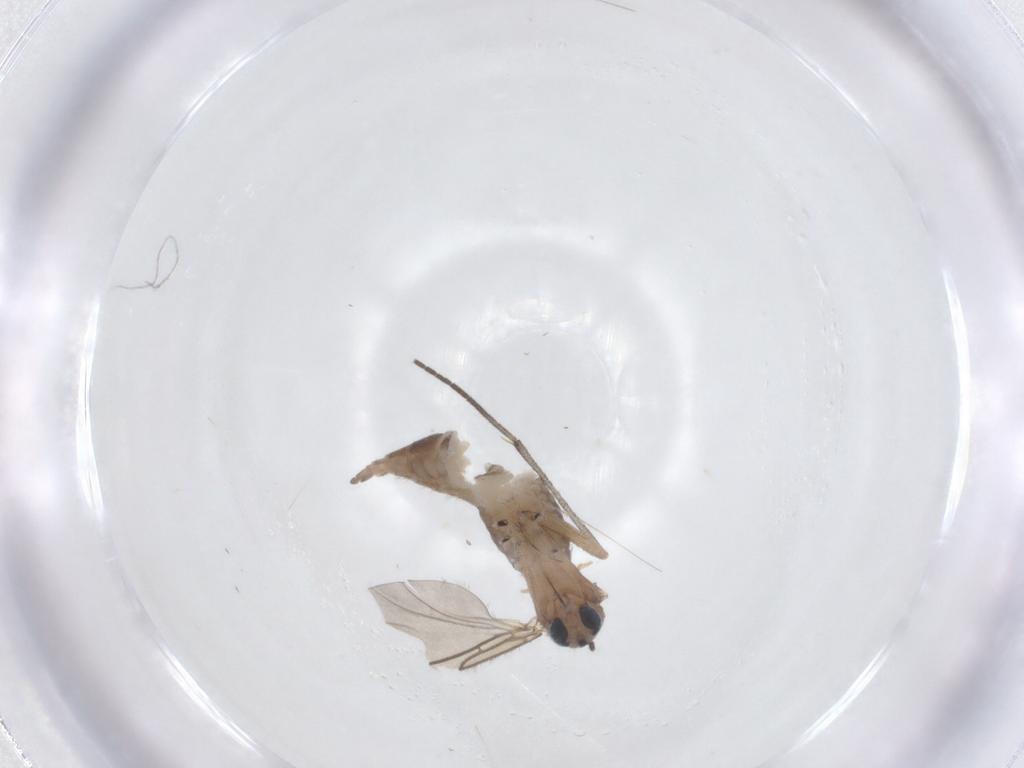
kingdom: Animalia
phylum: Arthropoda
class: Insecta
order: Diptera
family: Sciaridae
